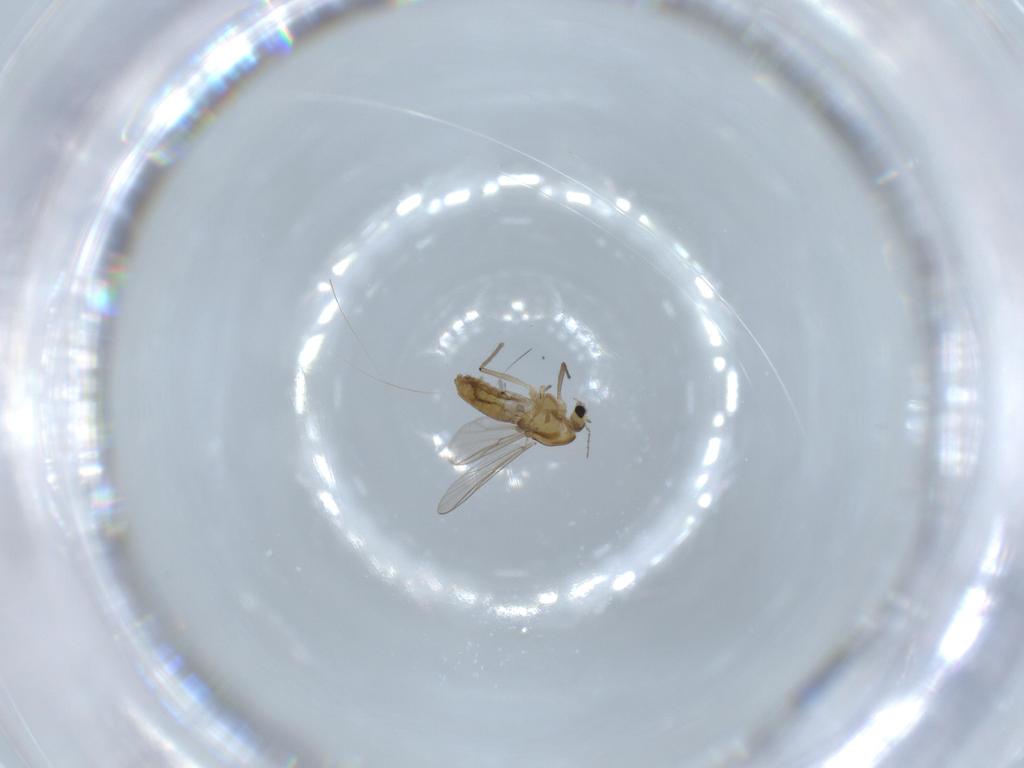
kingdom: Animalia
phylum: Arthropoda
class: Insecta
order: Diptera
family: Chironomidae
